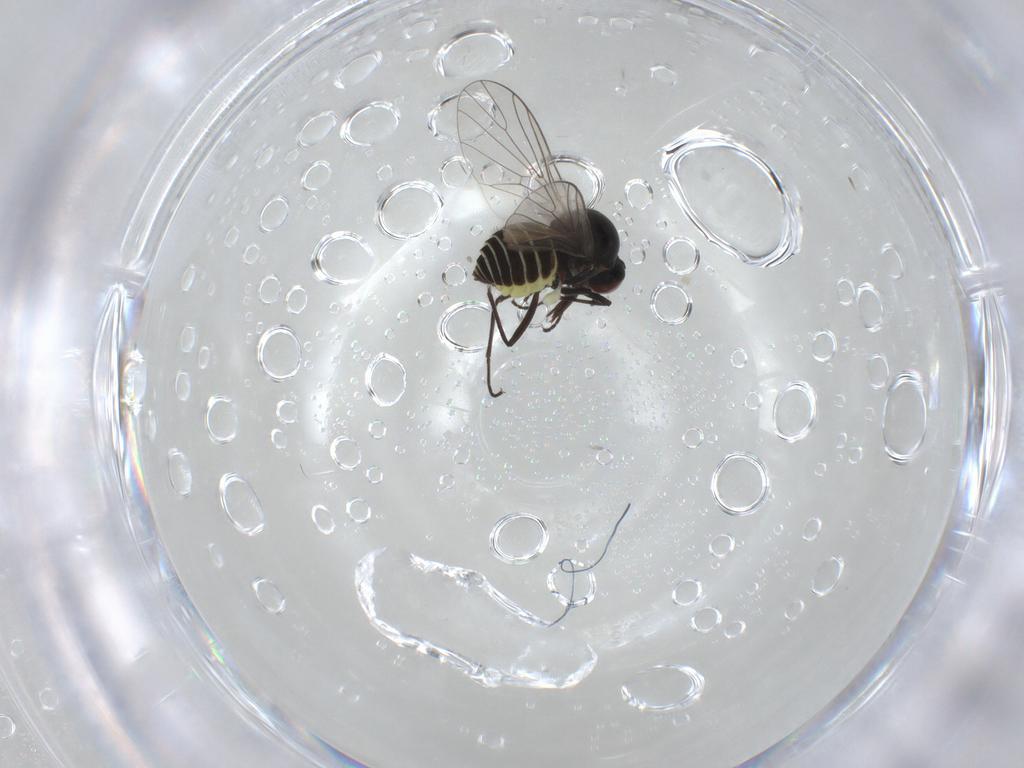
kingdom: Animalia
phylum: Arthropoda
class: Insecta
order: Diptera
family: Bombyliidae
